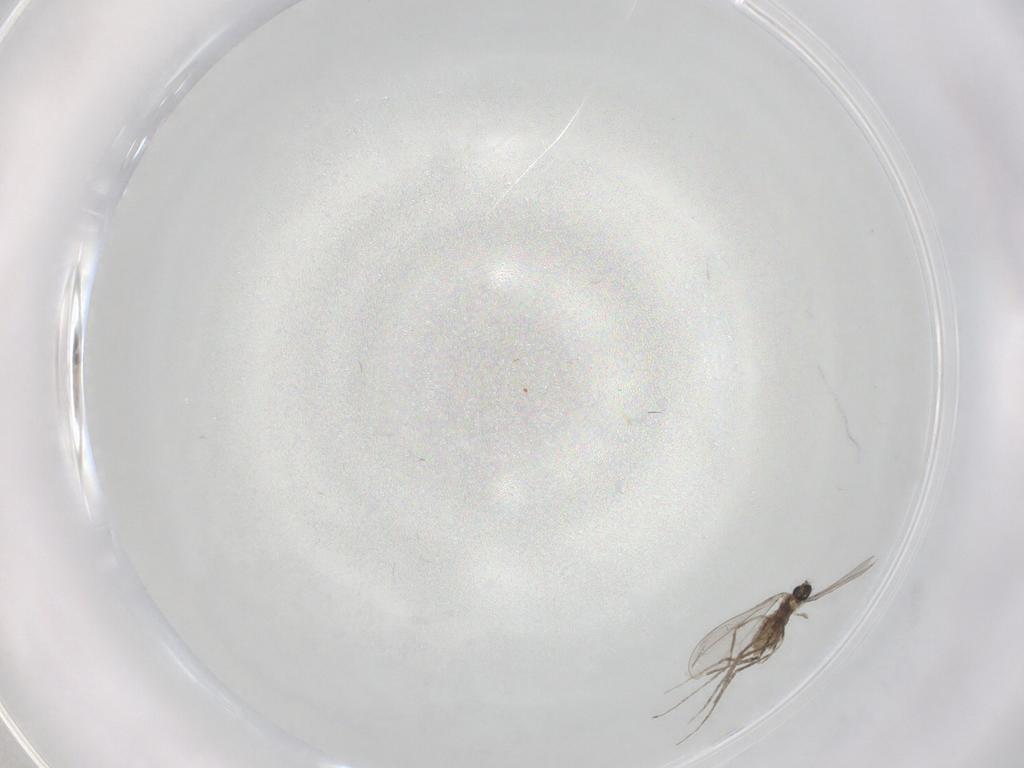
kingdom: Animalia
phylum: Arthropoda
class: Insecta
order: Diptera
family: Cecidomyiidae
